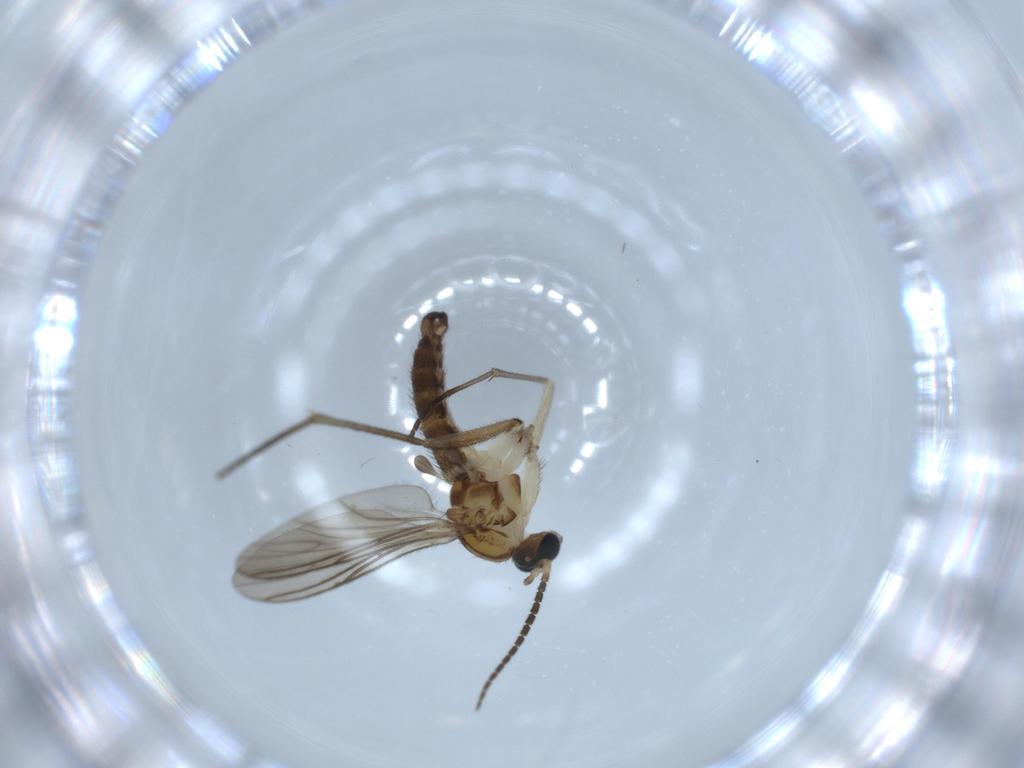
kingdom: Animalia
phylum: Arthropoda
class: Insecta
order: Diptera
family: Sciaridae
